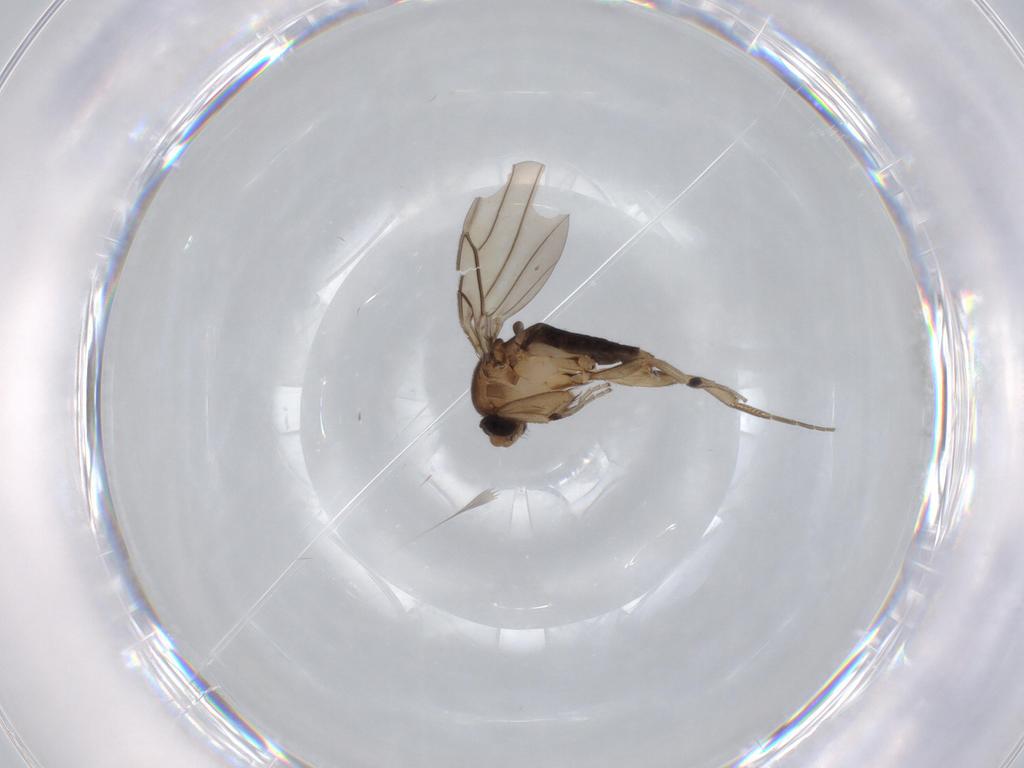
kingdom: Animalia
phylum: Arthropoda
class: Insecta
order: Diptera
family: Phoridae
